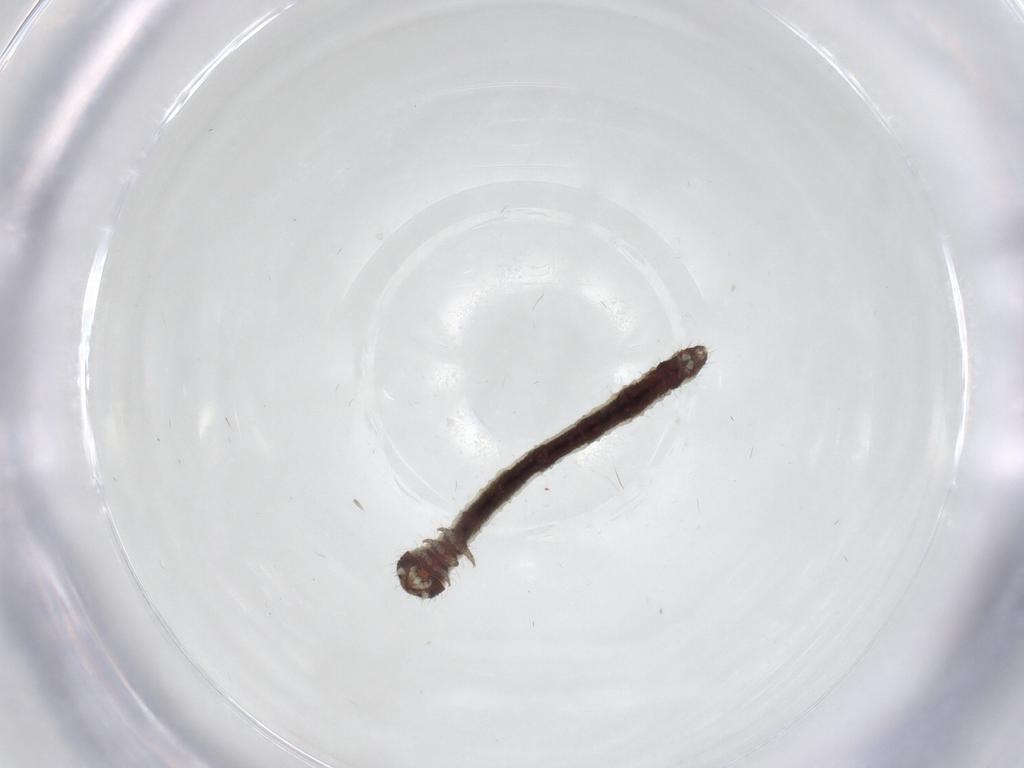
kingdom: Animalia
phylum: Arthropoda
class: Insecta
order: Lepidoptera
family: Geometridae
